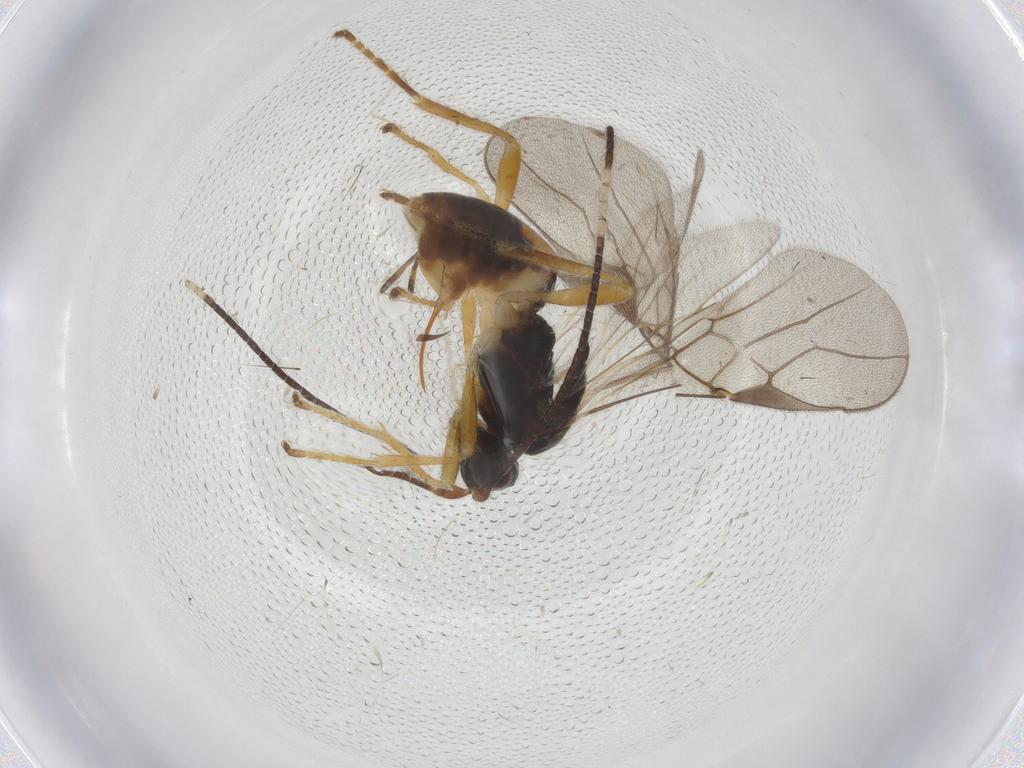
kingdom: Animalia
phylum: Arthropoda
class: Insecta
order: Hymenoptera
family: Braconidae
